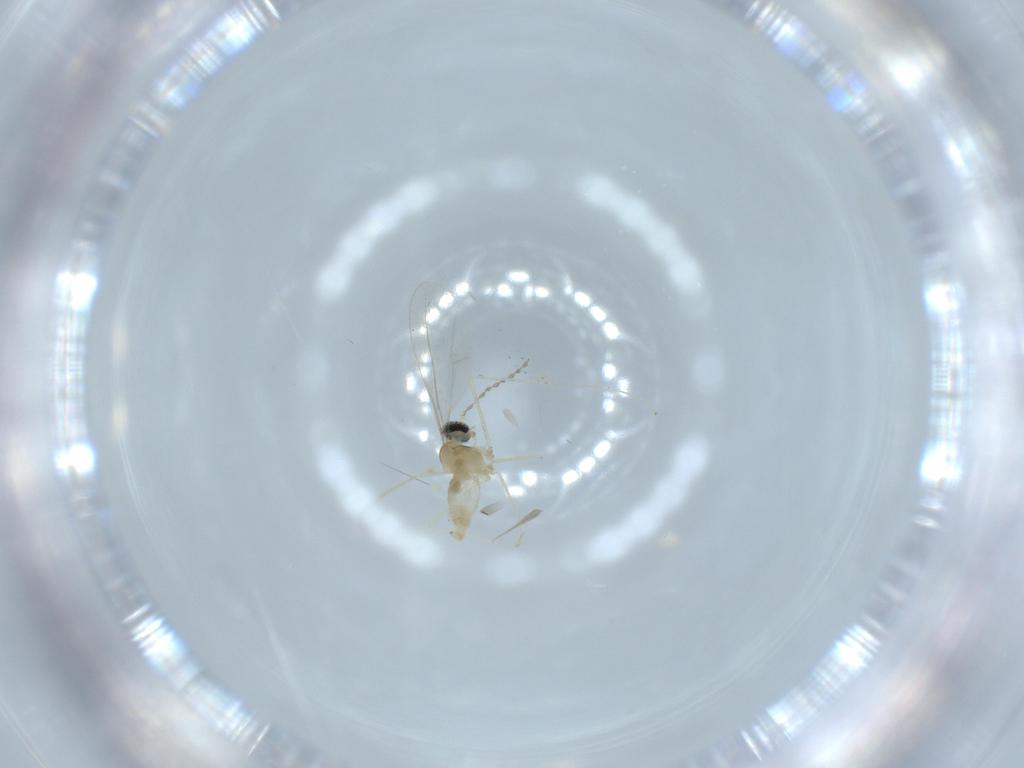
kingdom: Animalia
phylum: Arthropoda
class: Insecta
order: Diptera
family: Cecidomyiidae
